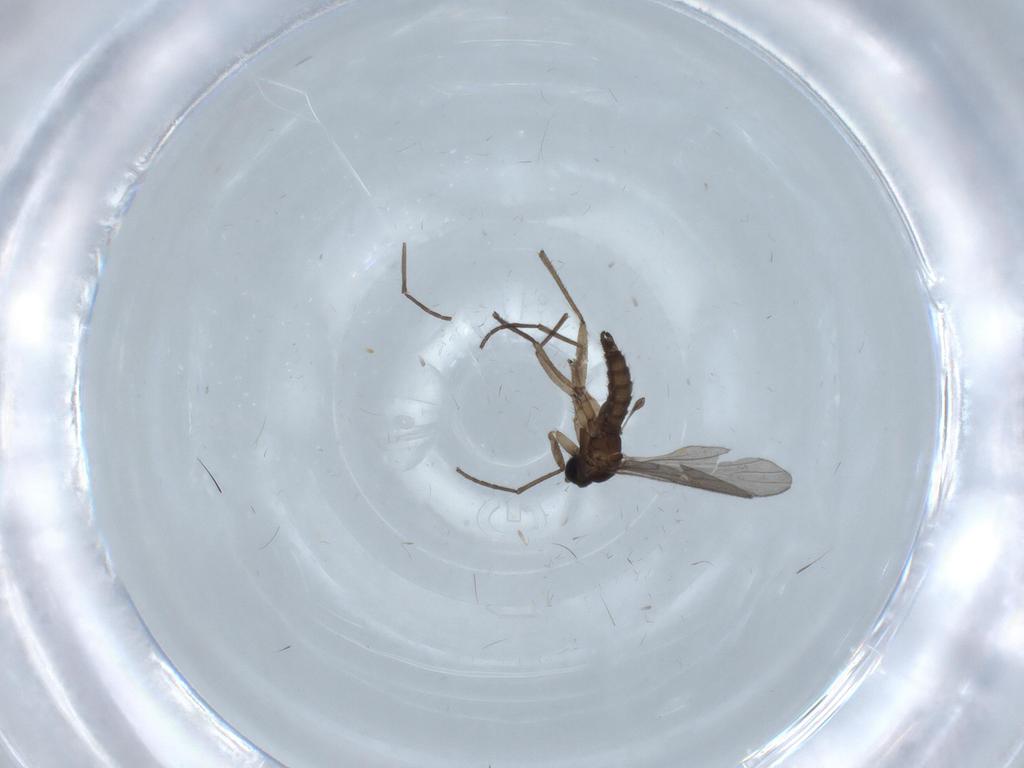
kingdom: Animalia
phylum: Arthropoda
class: Insecta
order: Diptera
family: Sciaridae
